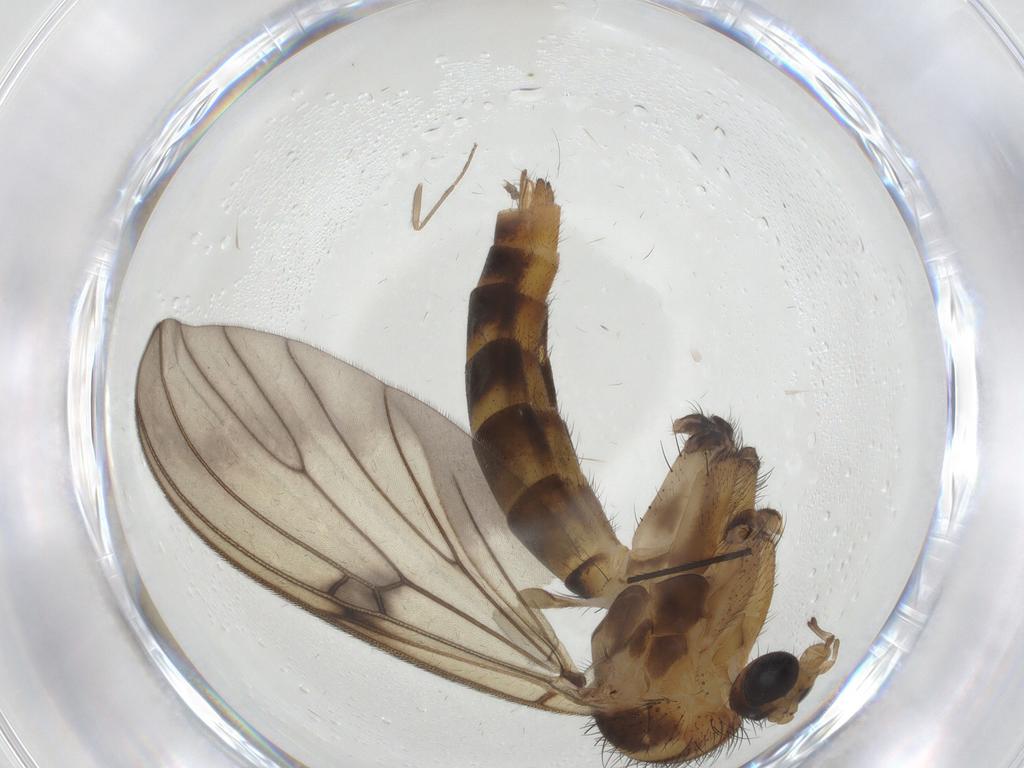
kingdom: Animalia
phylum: Arthropoda
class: Insecta
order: Diptera
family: Mycetophilidae
